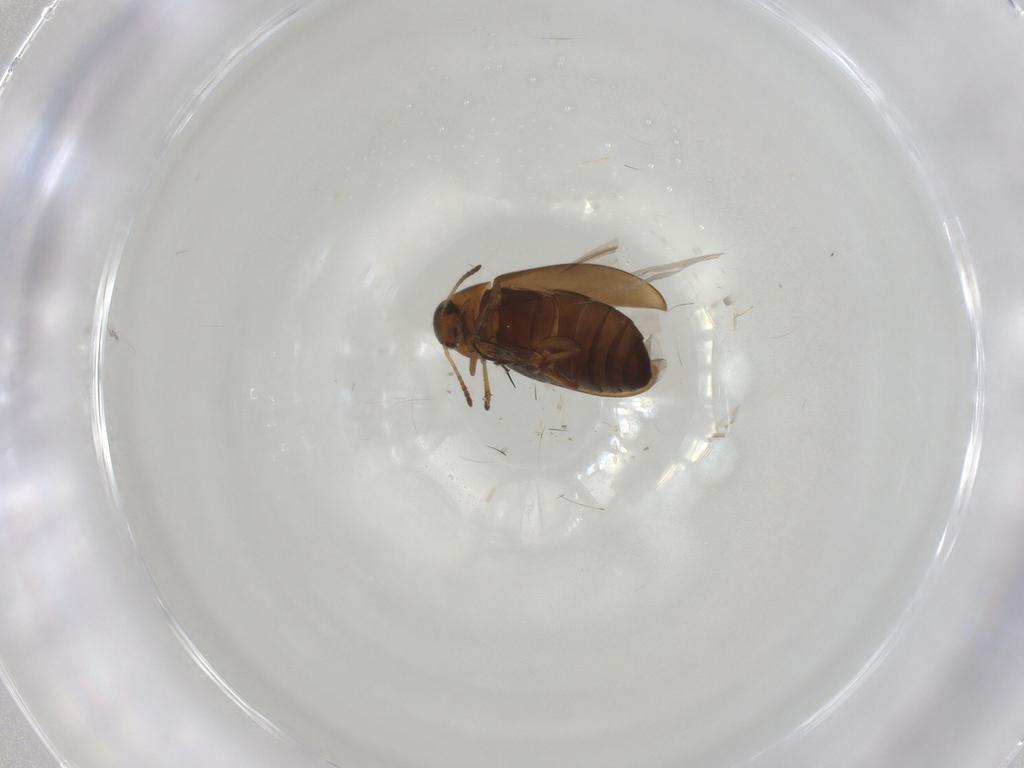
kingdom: Animalia
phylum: Arthropoda
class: Insecta
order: Coleoptera
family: Scraptiidae
